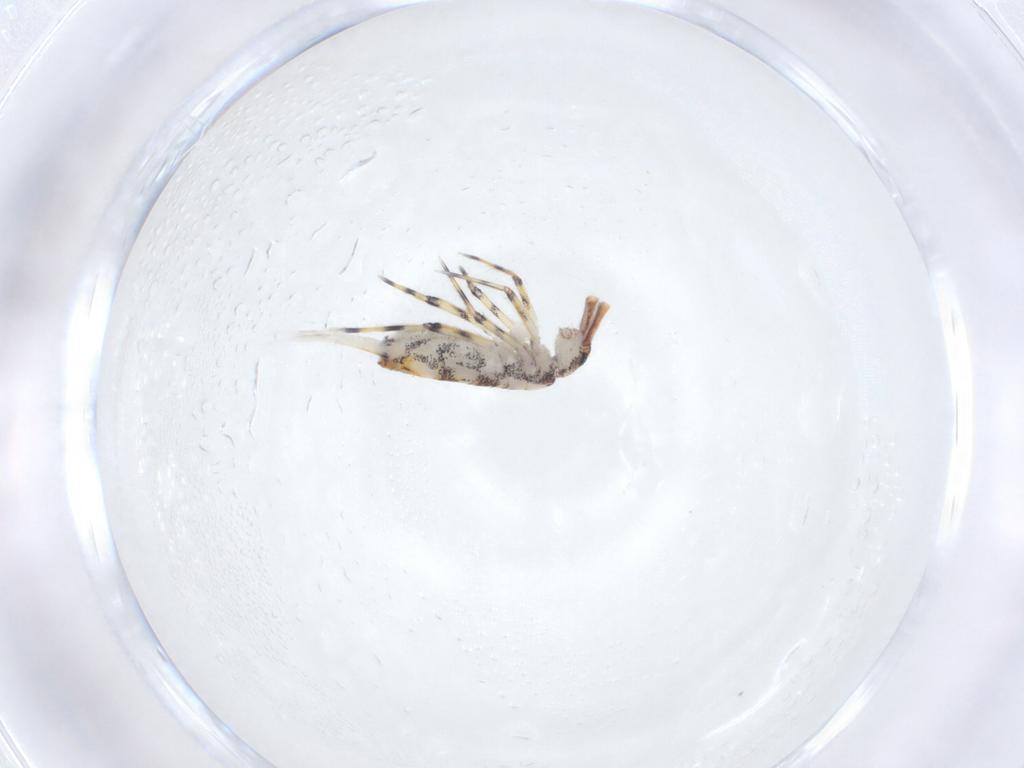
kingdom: Animalia
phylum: Arthropoda
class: Collembola
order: Entomobryomorpha
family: Entomobryidae
